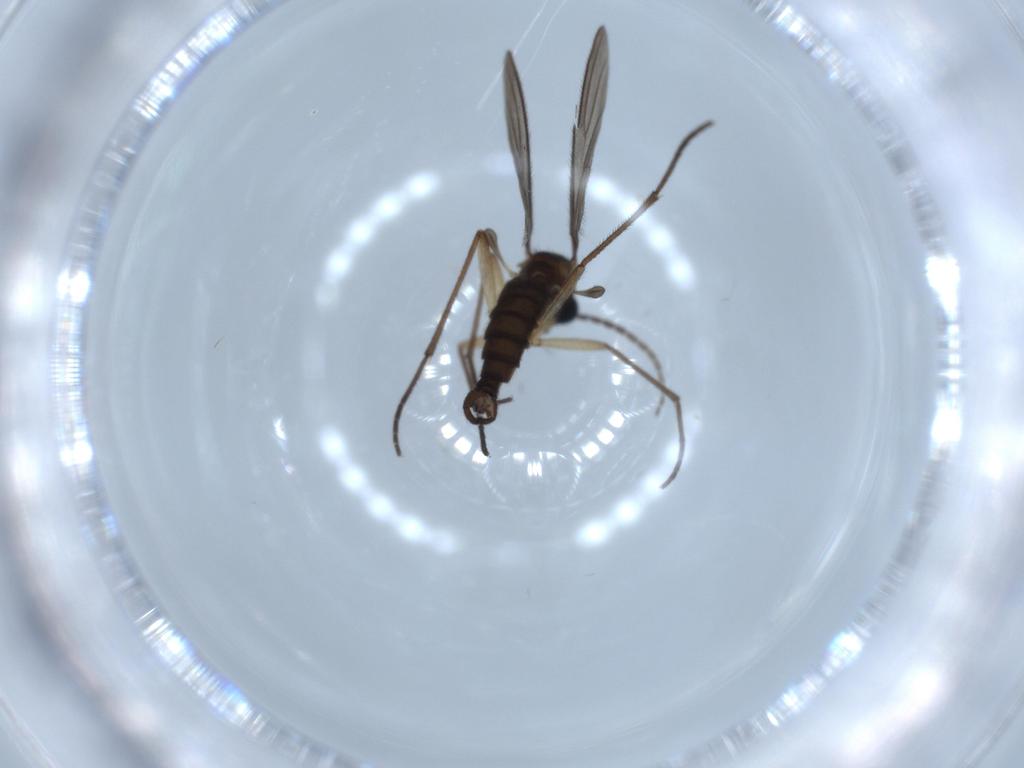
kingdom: Animalia
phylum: Arthropoda
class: Insecta
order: Diptera
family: Sciaridae
